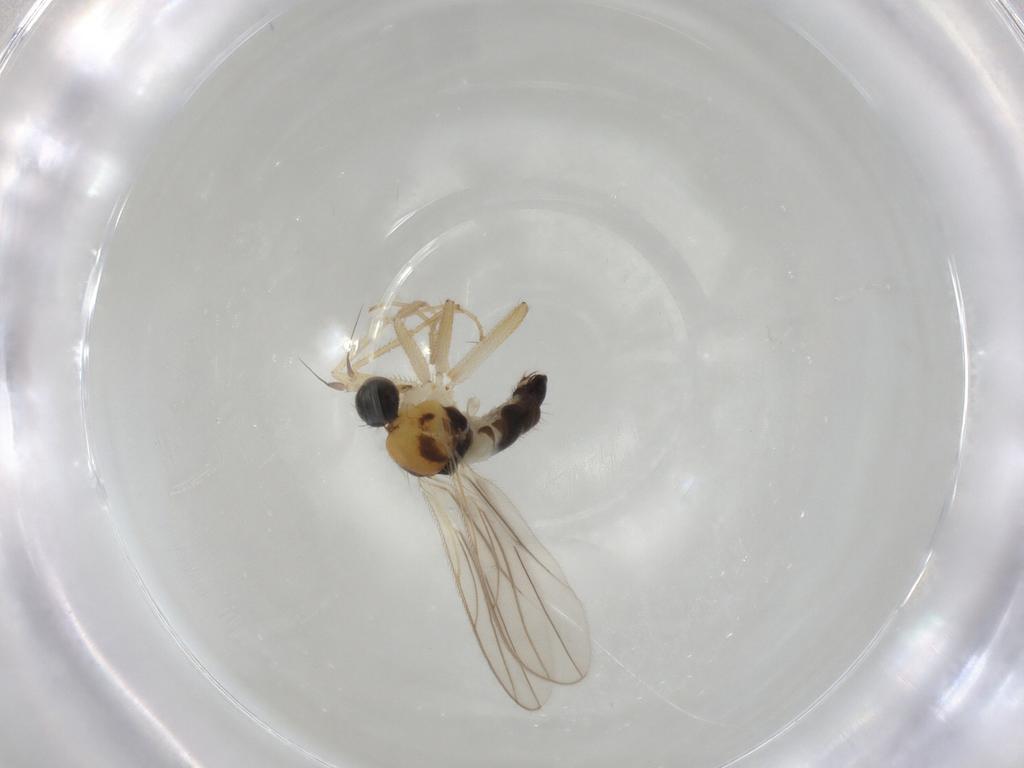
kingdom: Animalia
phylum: Arthropoda
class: Insecta
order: Diptera
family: Hybotidae
